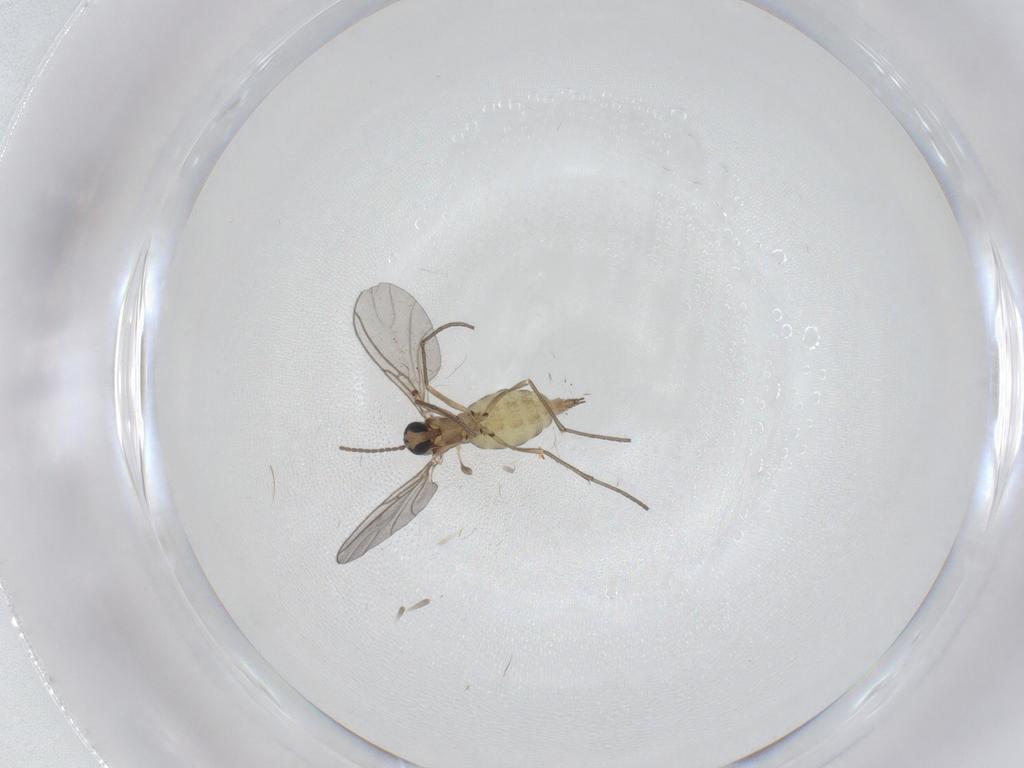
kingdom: Animalia
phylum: Arthropoda
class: Insecta
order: Diptera
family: Sciaridae
